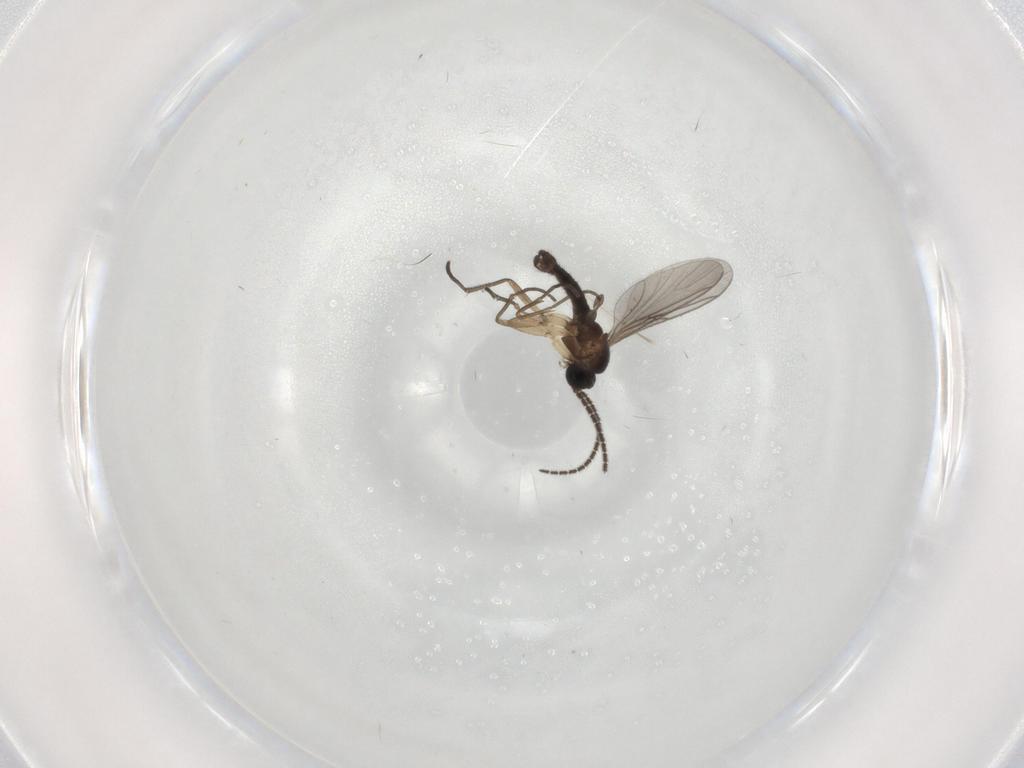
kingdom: Animalia
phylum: Arthropoda
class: Insecta
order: Diptera
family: Sciaridae
